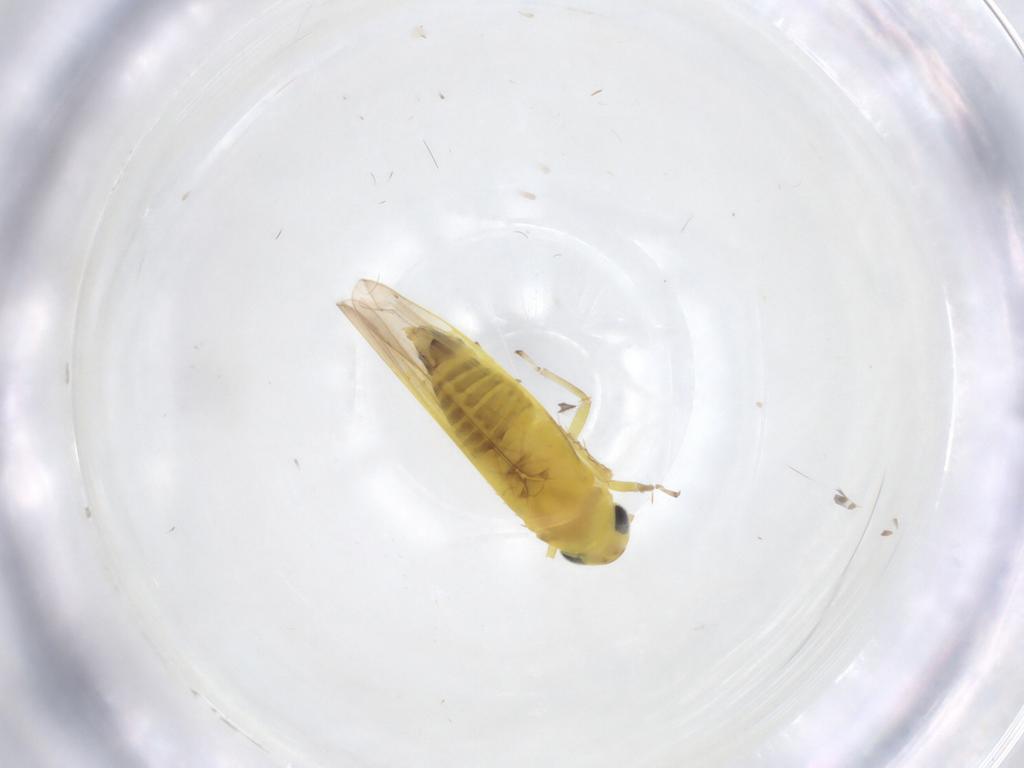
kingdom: Animalia
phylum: Arthropoda
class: Insecta
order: Hemiptera
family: Cicadellidae
